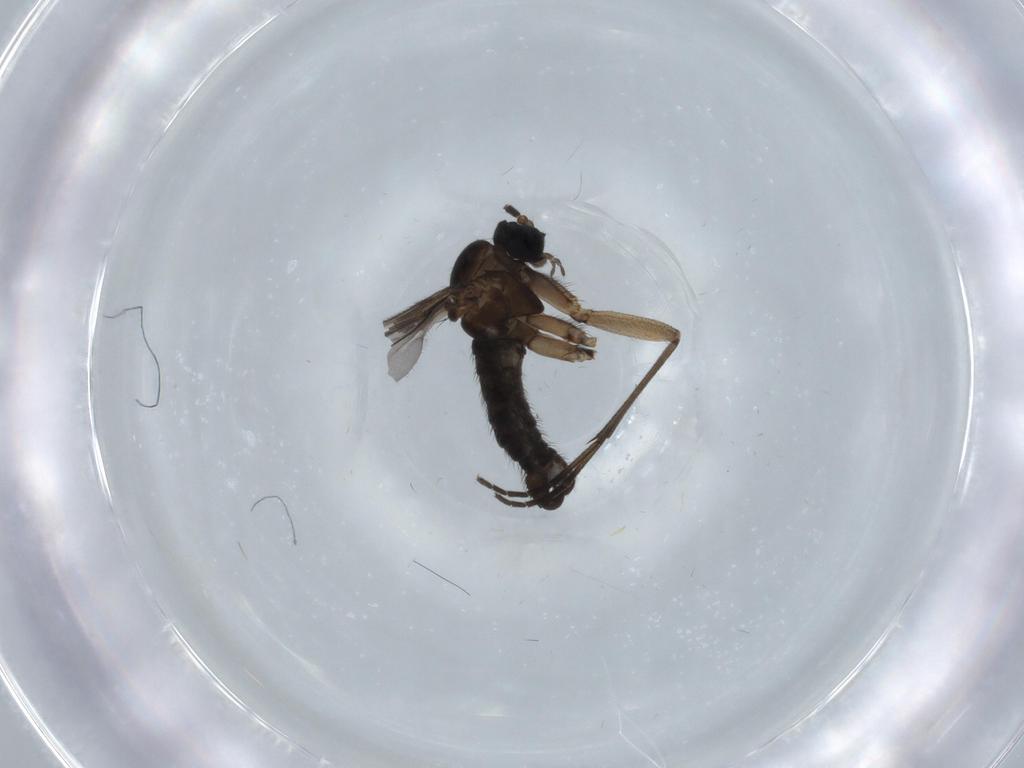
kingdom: Animalia
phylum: Arthropoda
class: Insecta
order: Diptera
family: Sciaridae
